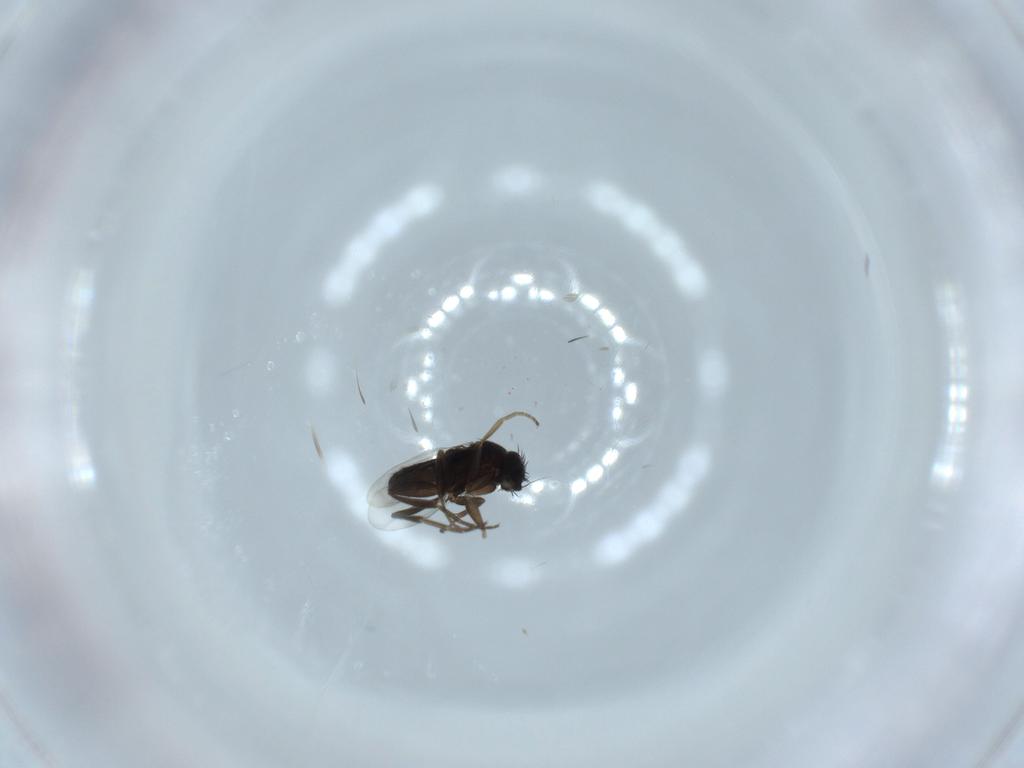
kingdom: Animalia
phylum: Arthropoda
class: Insecta
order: Diptera
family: Phoridae
